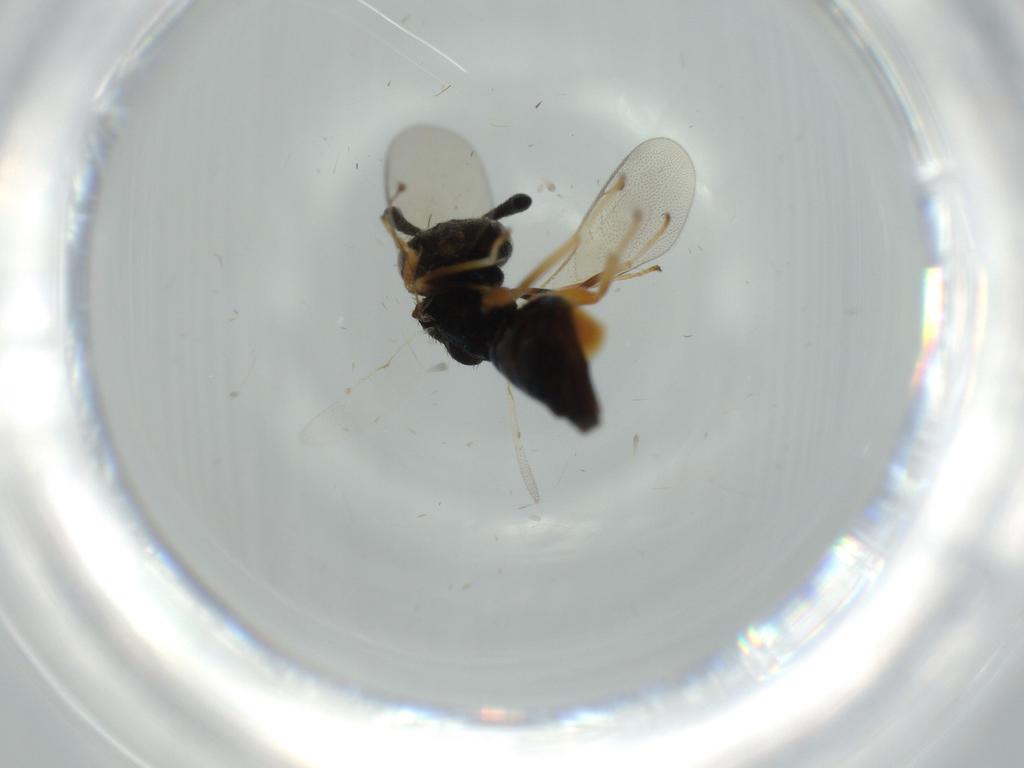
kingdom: Animalia
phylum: Arthropoda
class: Insecta
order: Hymenoptera
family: Agaonidae
